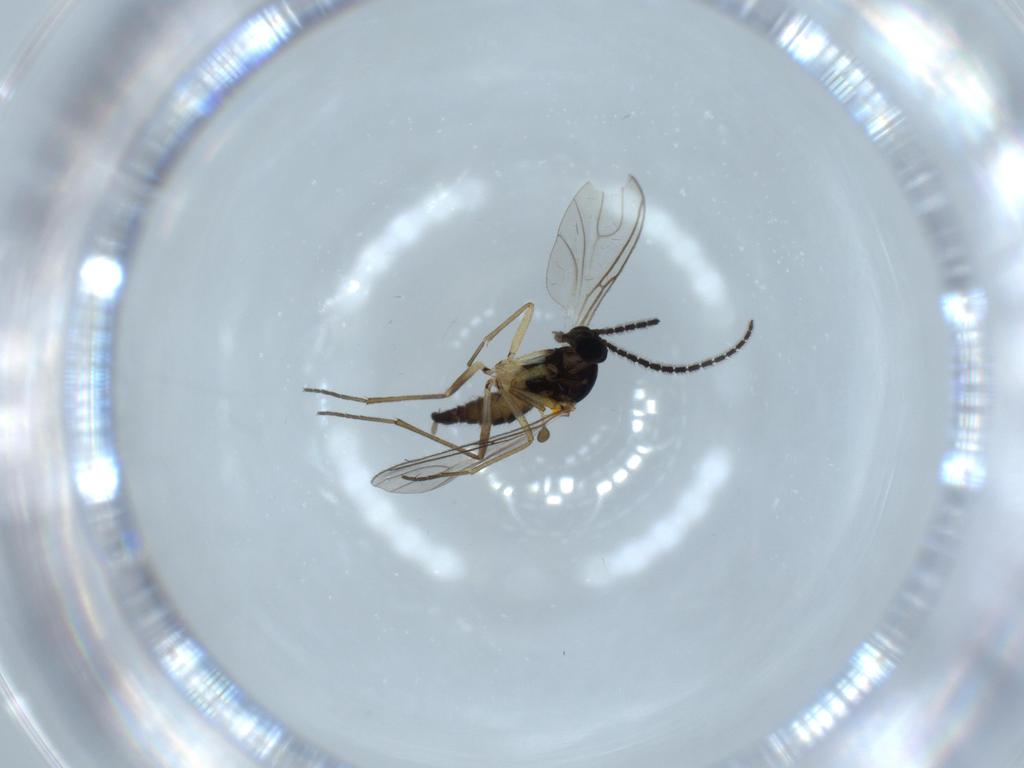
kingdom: Animalia
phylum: Arthropoda
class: Insecta
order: Diptera
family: Sciaridae
